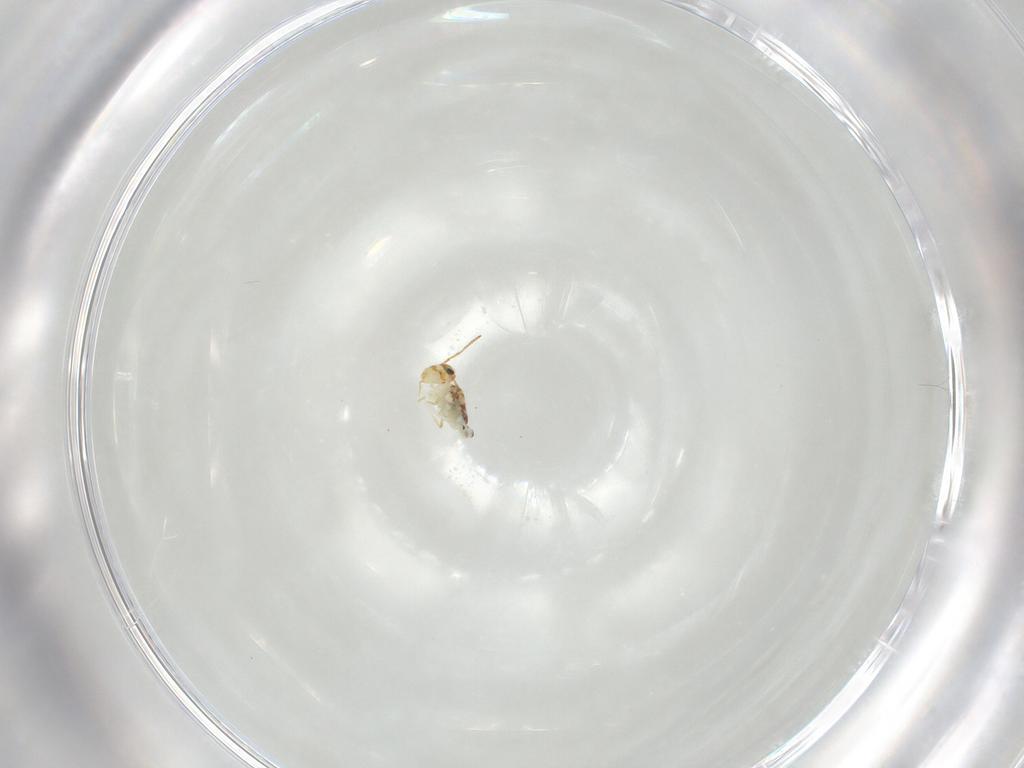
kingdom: Animalia
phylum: Arthropoda
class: Collembola
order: Symphypleona
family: Bourletiellidae
